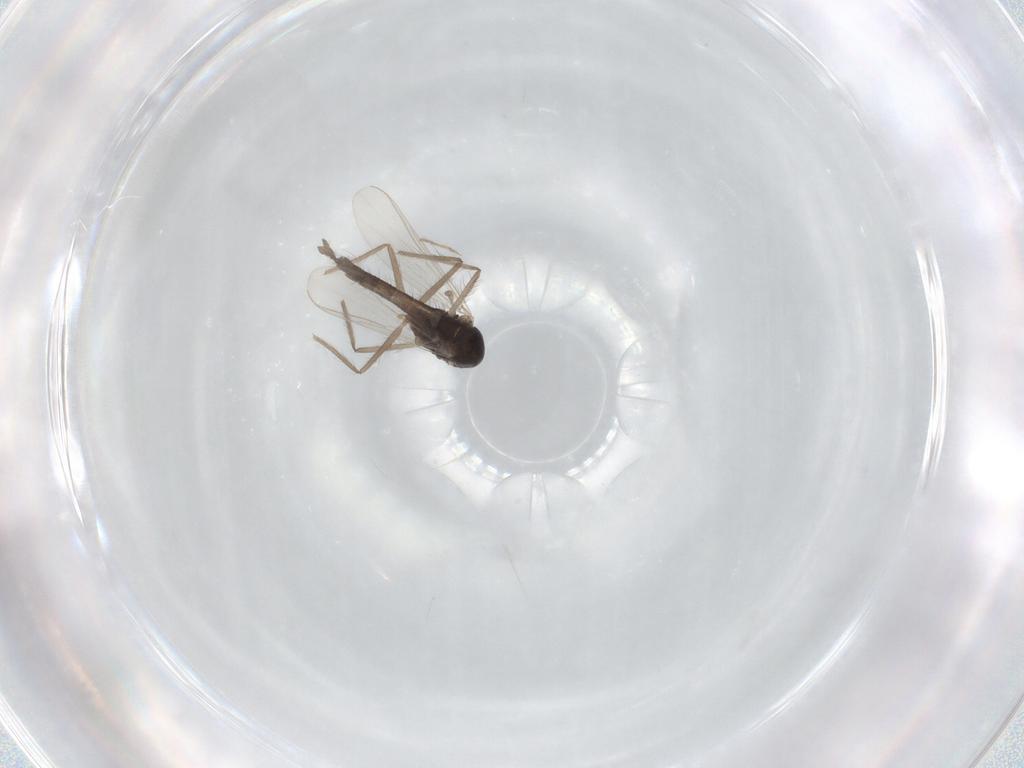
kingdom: Animalia
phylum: Arthropoda
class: Insecta
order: Diptera
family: Chironomidae
